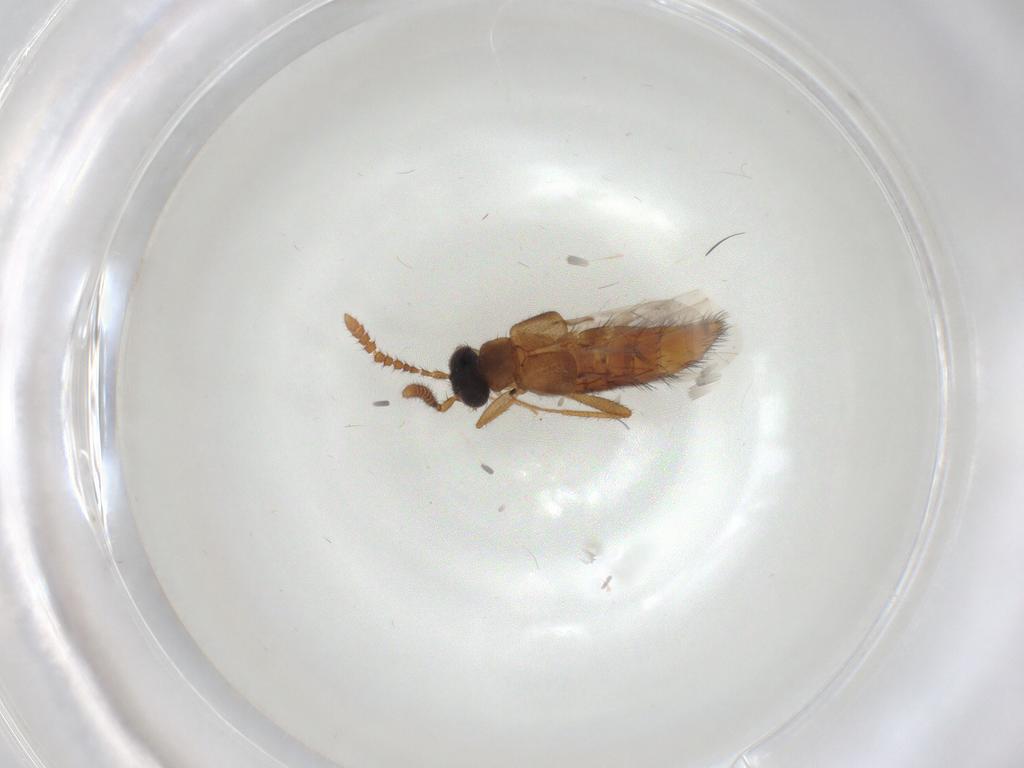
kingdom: Animalia
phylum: Arthropoda
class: Insecta
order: Coleoptera
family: Staphylinidae
